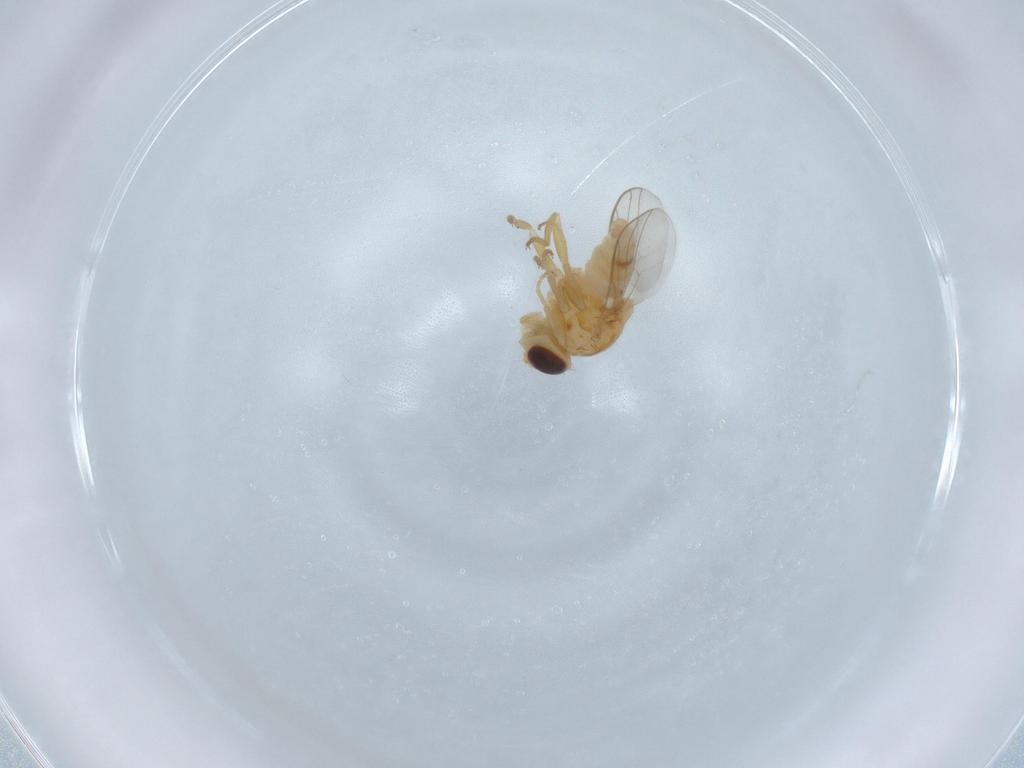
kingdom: Animalia
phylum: Arthropoda
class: Insecta
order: Diptera
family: Chloropidae
